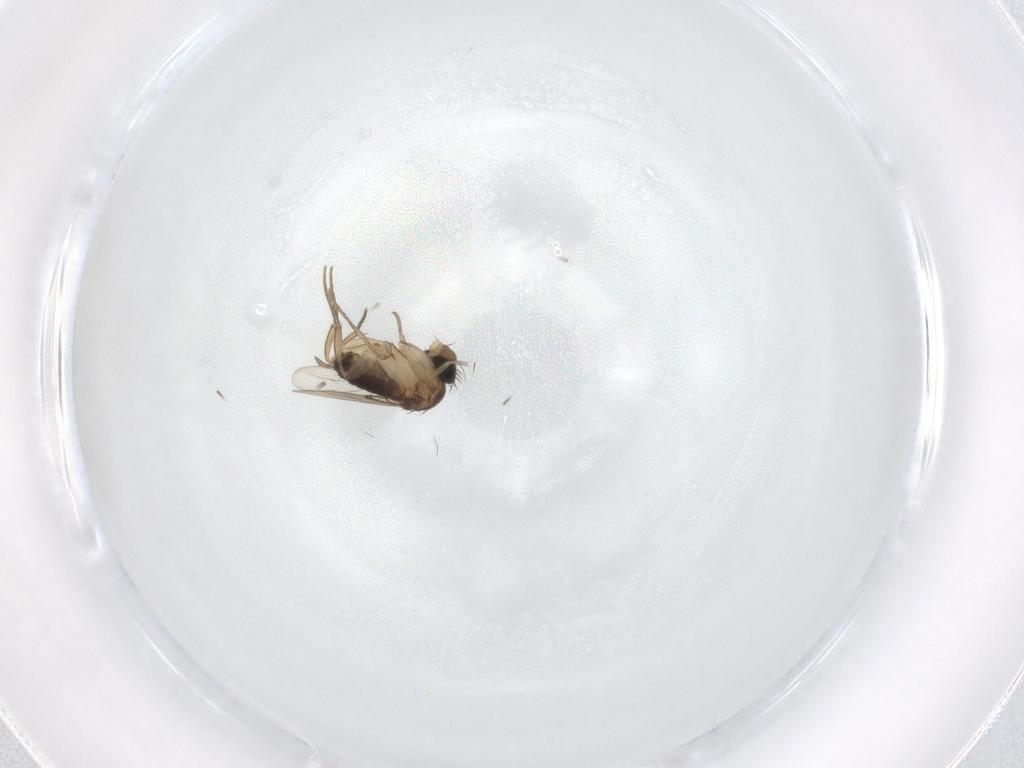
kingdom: Animalia
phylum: Arthropoda
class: Insecta
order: Diptera
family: Phoridae
